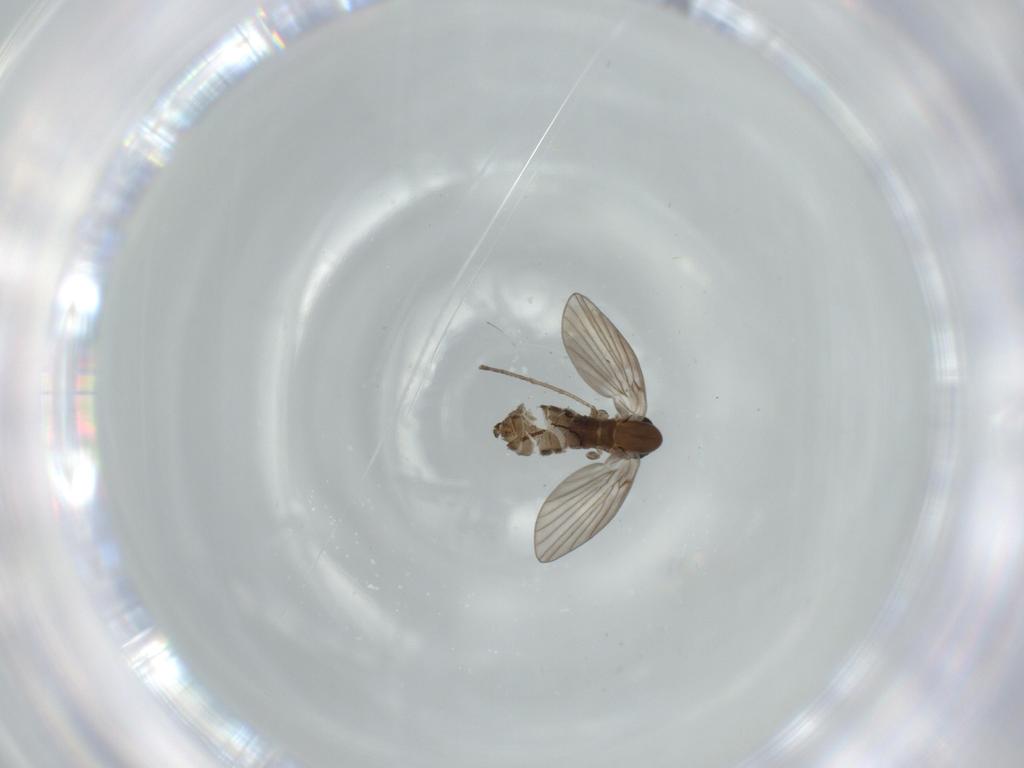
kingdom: Animalia
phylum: Arthropoda
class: Insecta
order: Diptera
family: Psychodidae
